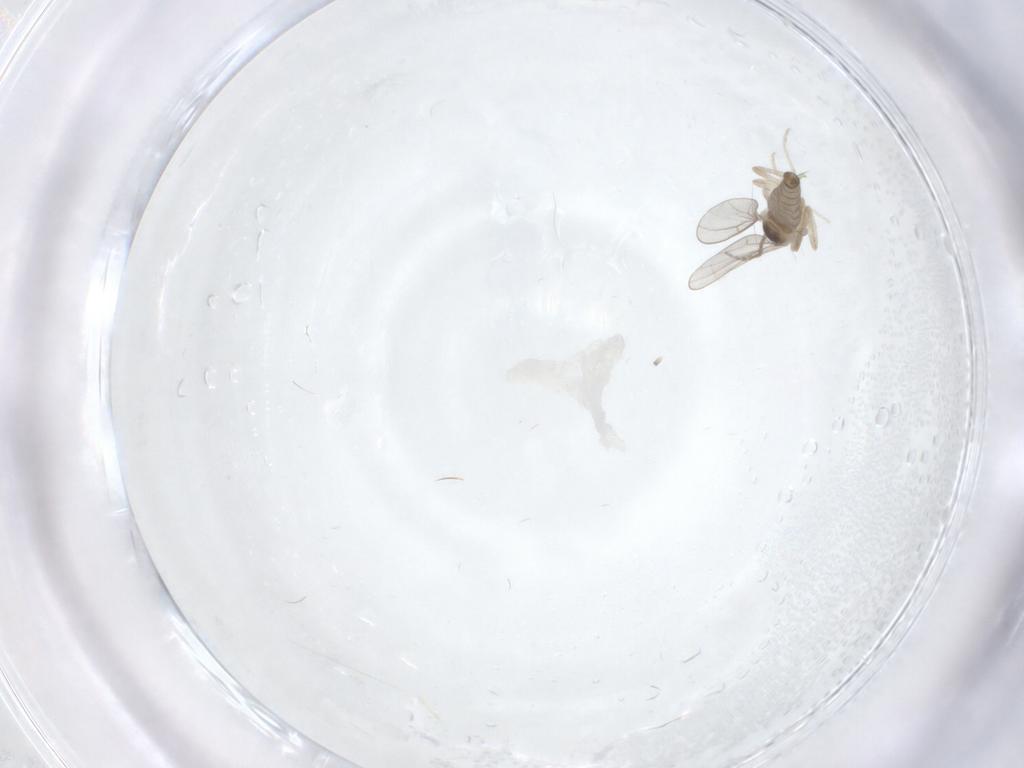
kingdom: Animalia
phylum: Arthropoda
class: Insecta
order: Diptera
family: Cecidomyiidae
